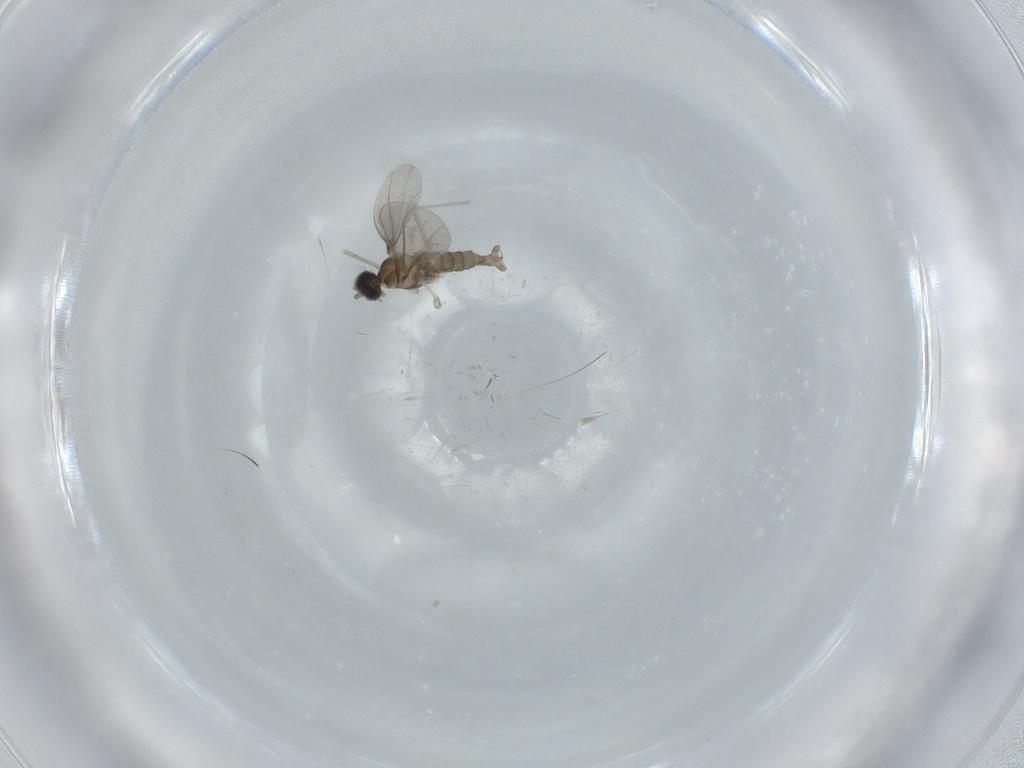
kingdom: Animalia
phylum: Arthropoda
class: Insecta
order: Diptera
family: Cecidomyiidae
